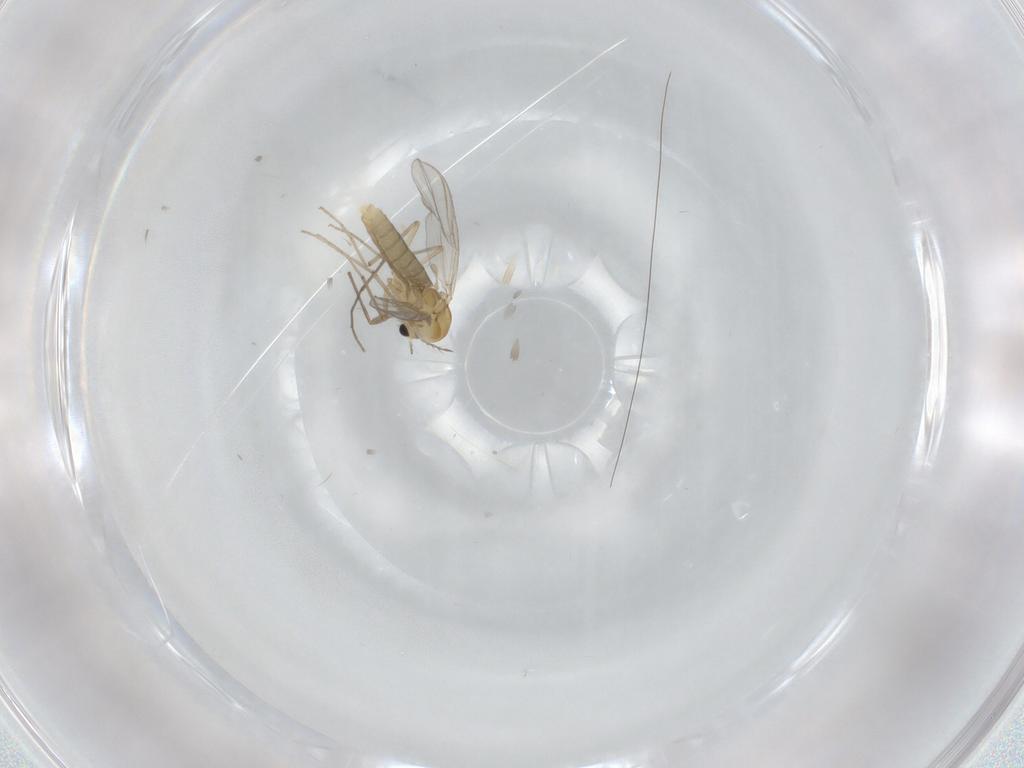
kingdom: Animalia
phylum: Arthropoda
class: Insecta
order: Diptera
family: Chironomidae
